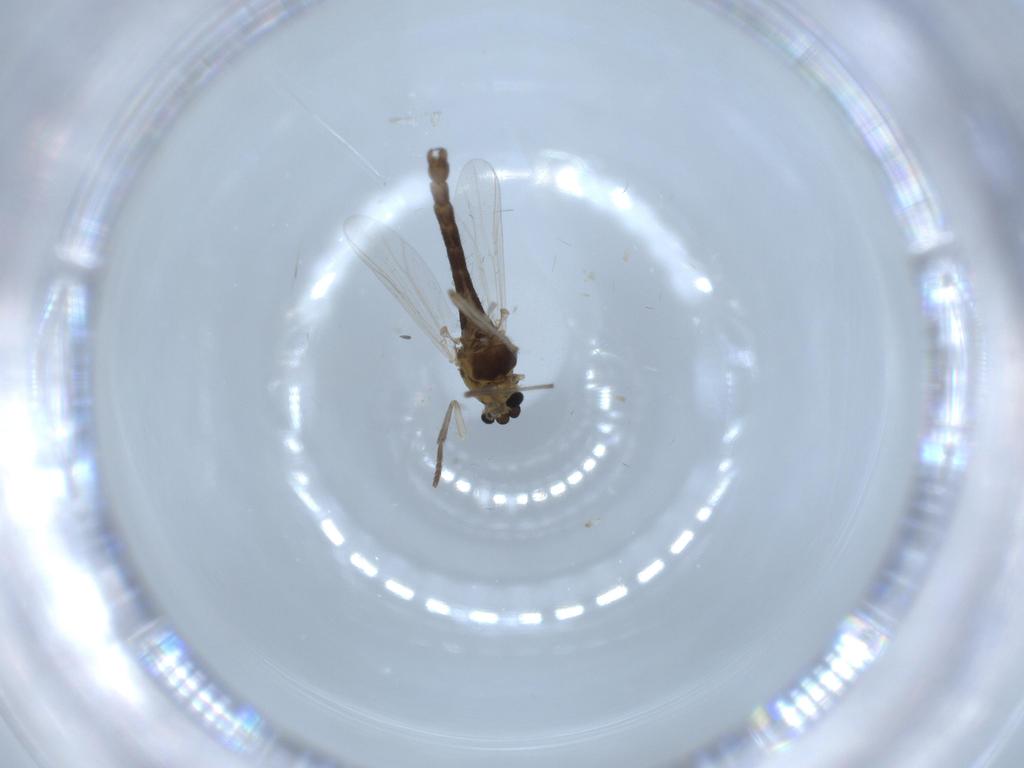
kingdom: Animalia
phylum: Arthropoda
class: Insecta
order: Diptera
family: Chironomidae
